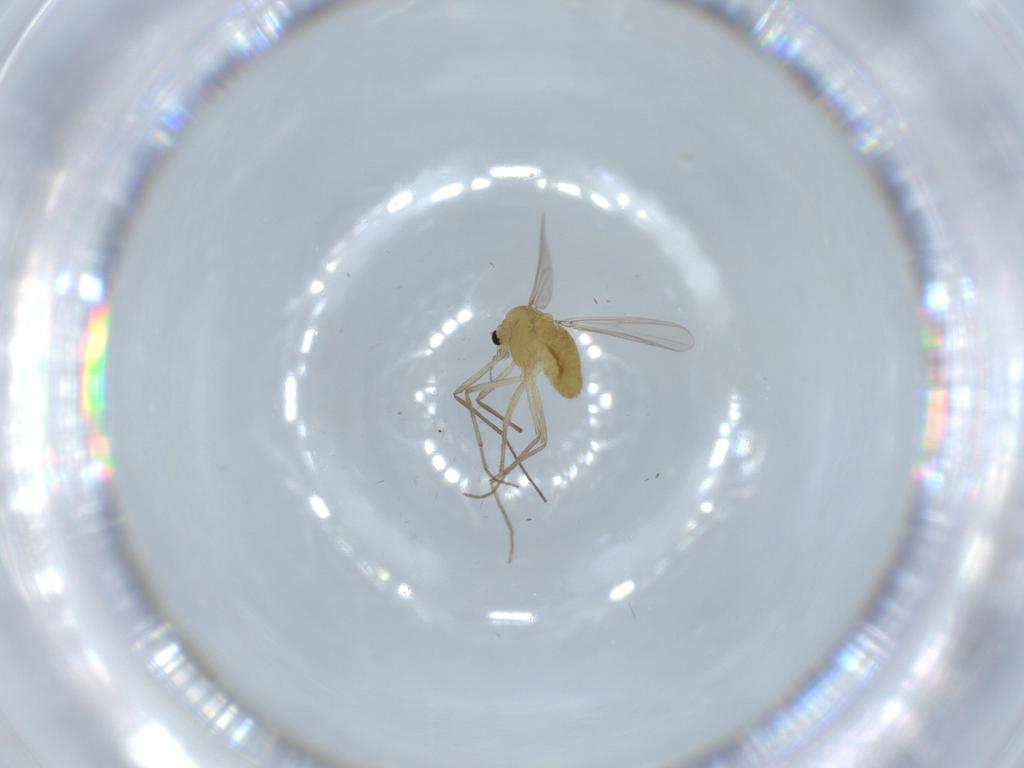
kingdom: Animalia
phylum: Arthropoda
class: Insecta
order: Diptera
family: Chironomidae
